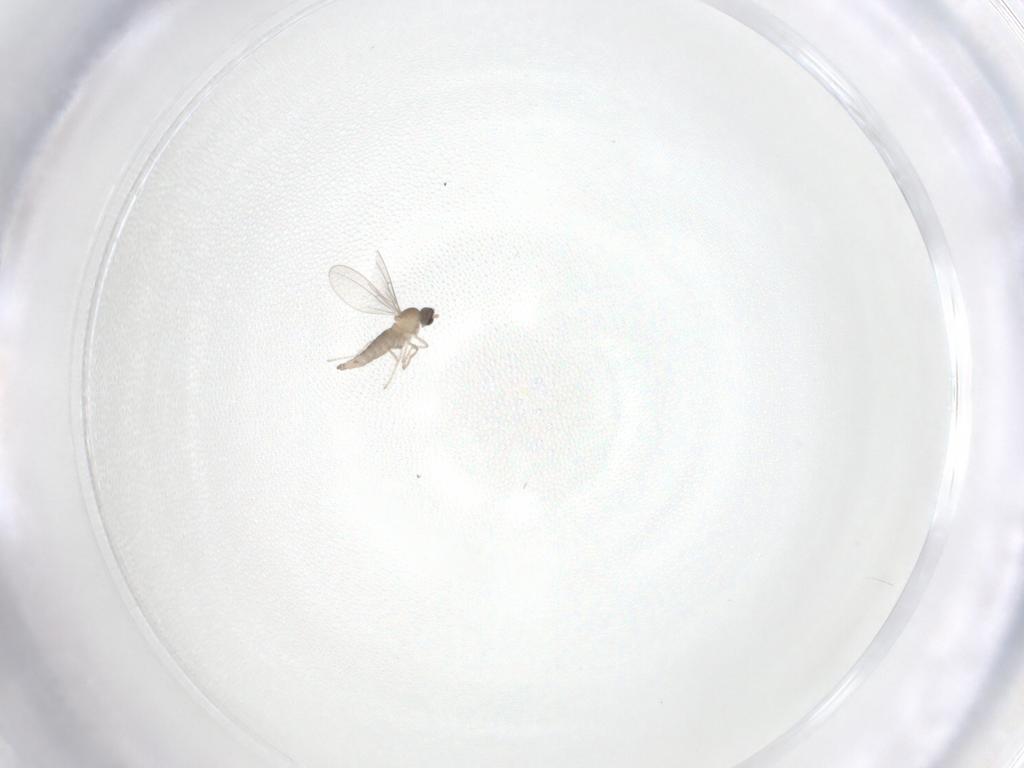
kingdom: Animalia
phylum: Arthropoda
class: Insecta
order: Diptera
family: Cecidomyiidae
